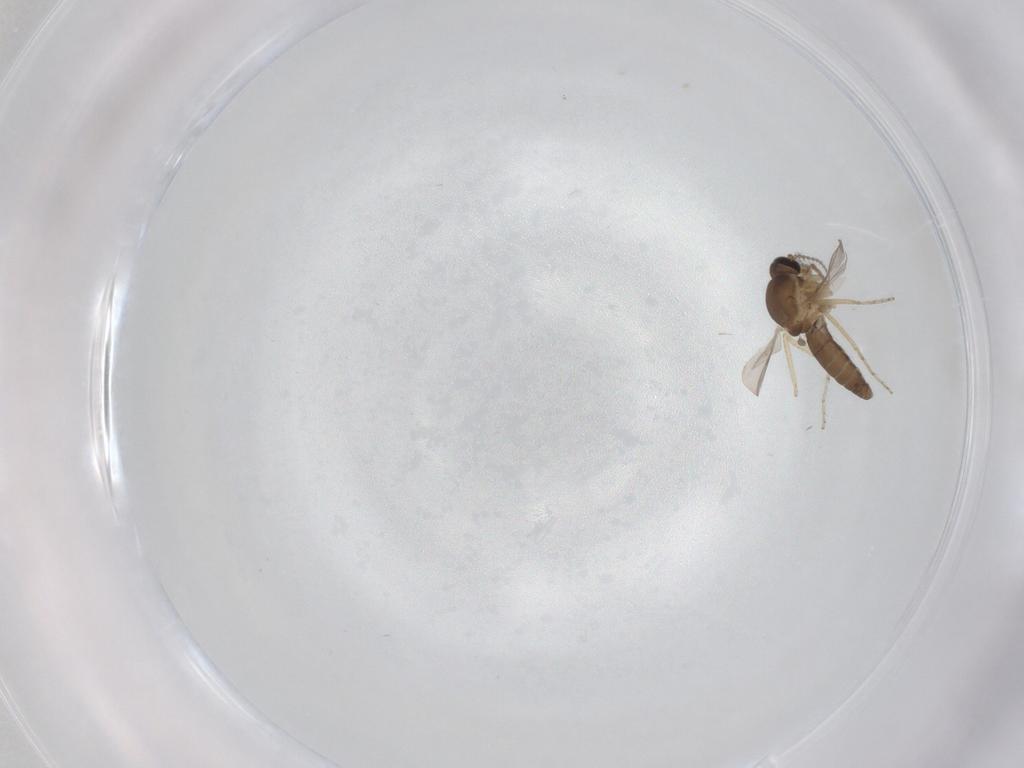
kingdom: Animalia
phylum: Arthropoda
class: Insecta
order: Diptera
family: Ceratopogonidae
